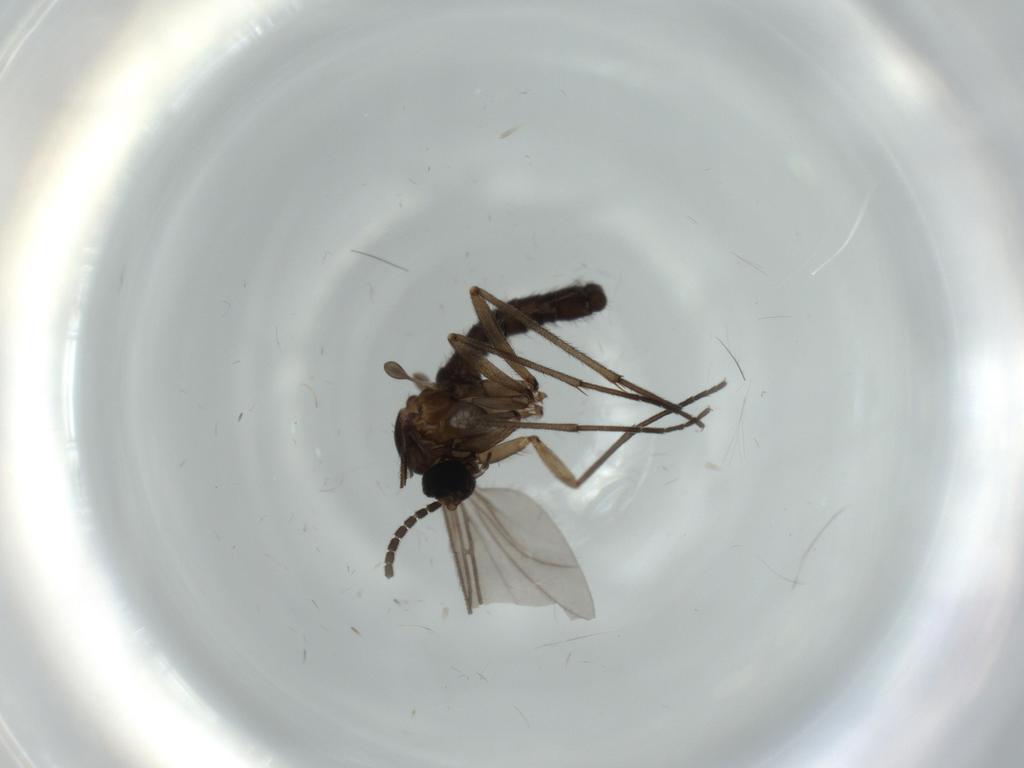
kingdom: Animalia
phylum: Arthropoda
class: Insecta
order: Diptera
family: Sciaridae
